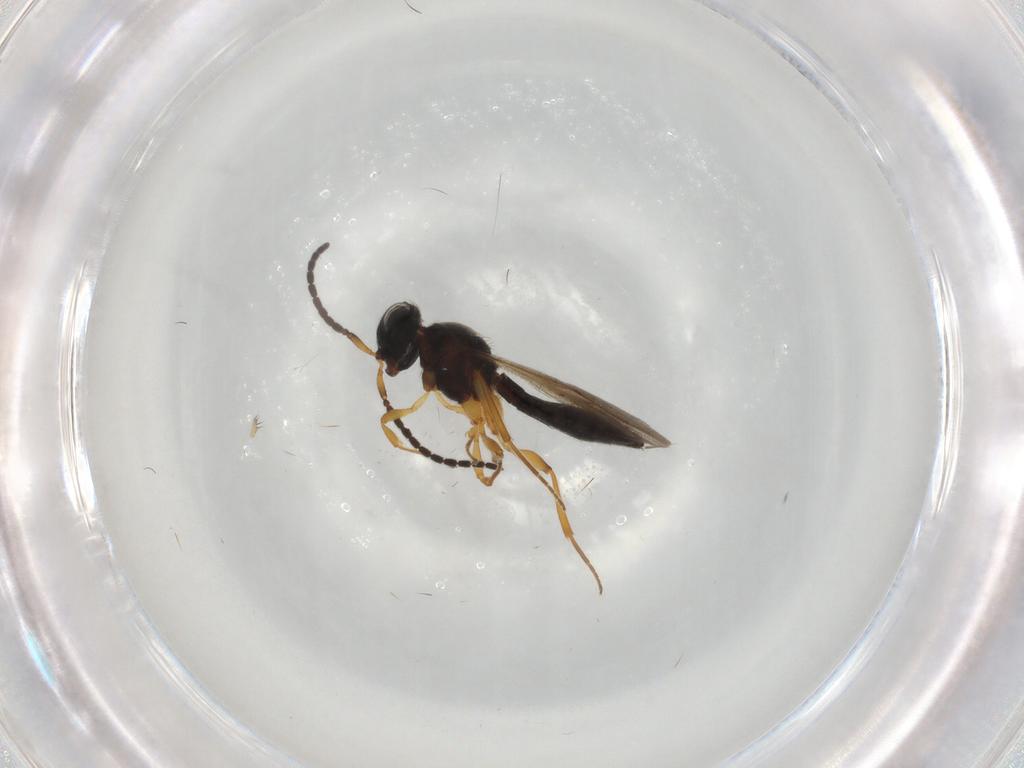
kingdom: Animalia
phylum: Arthropoda
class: Insecta
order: Hymenoptera
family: Scelionidae
